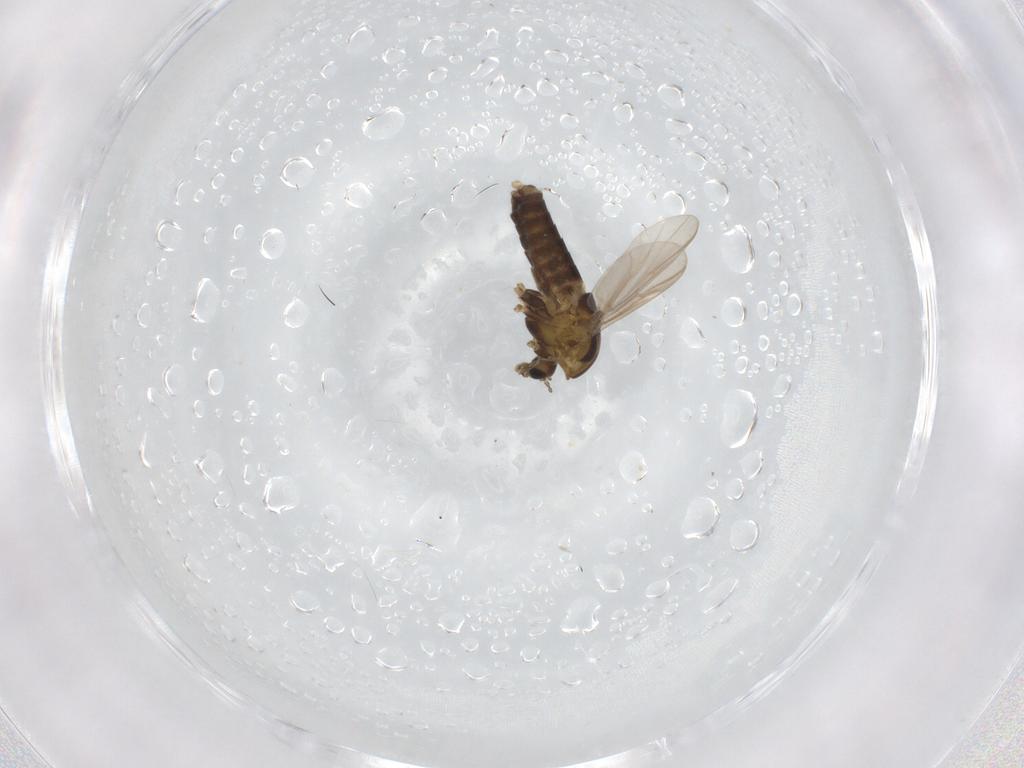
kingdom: Animalia
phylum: Arthropoda
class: Insecta
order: Diptera
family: Chironomidae
